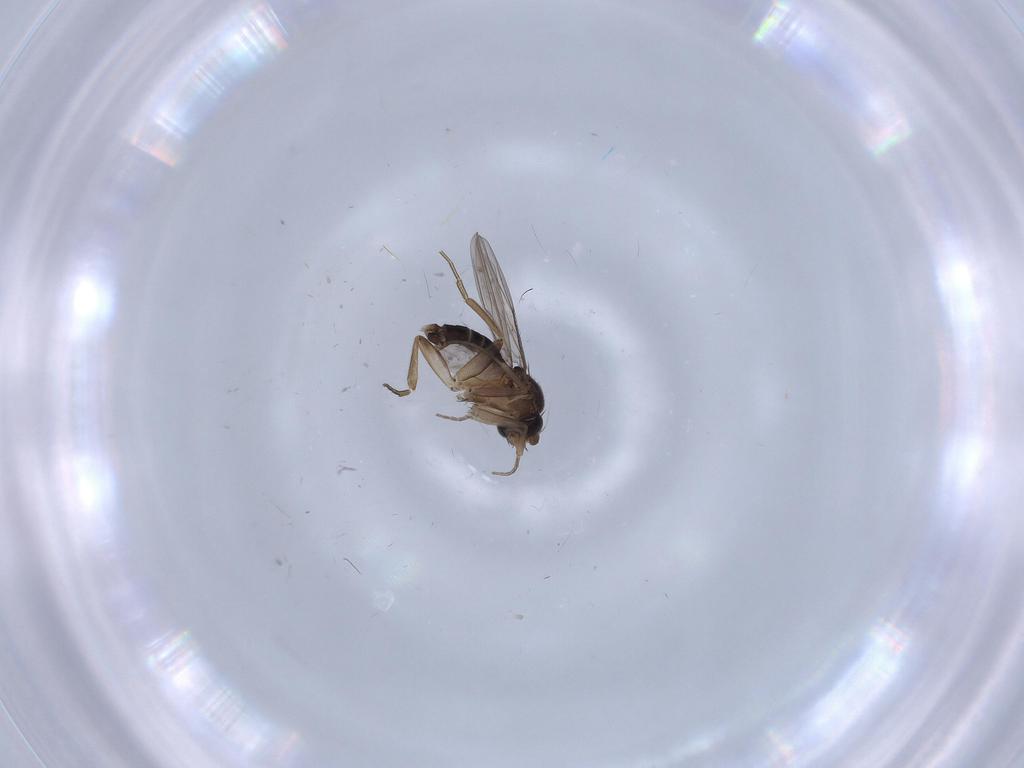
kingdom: Animalia
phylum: Arthropoda
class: Insecta
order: Diptera
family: Phoridae
